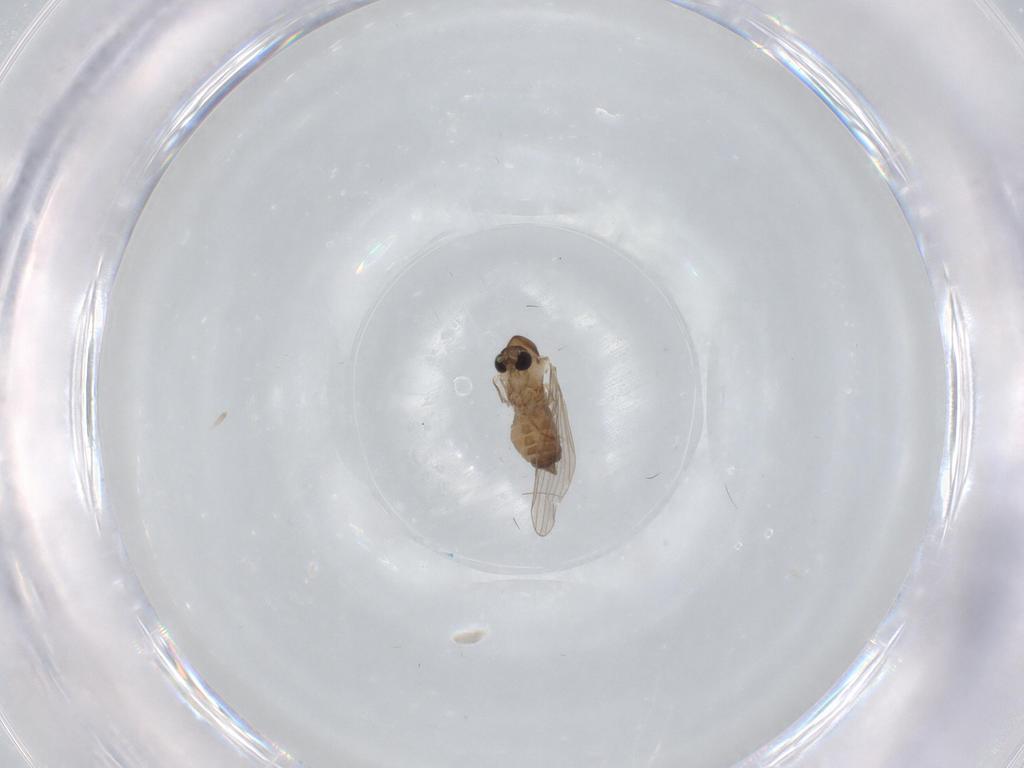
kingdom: Animalia
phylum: Arthropoda
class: Insecta
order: Diptera
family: Psychodidae
